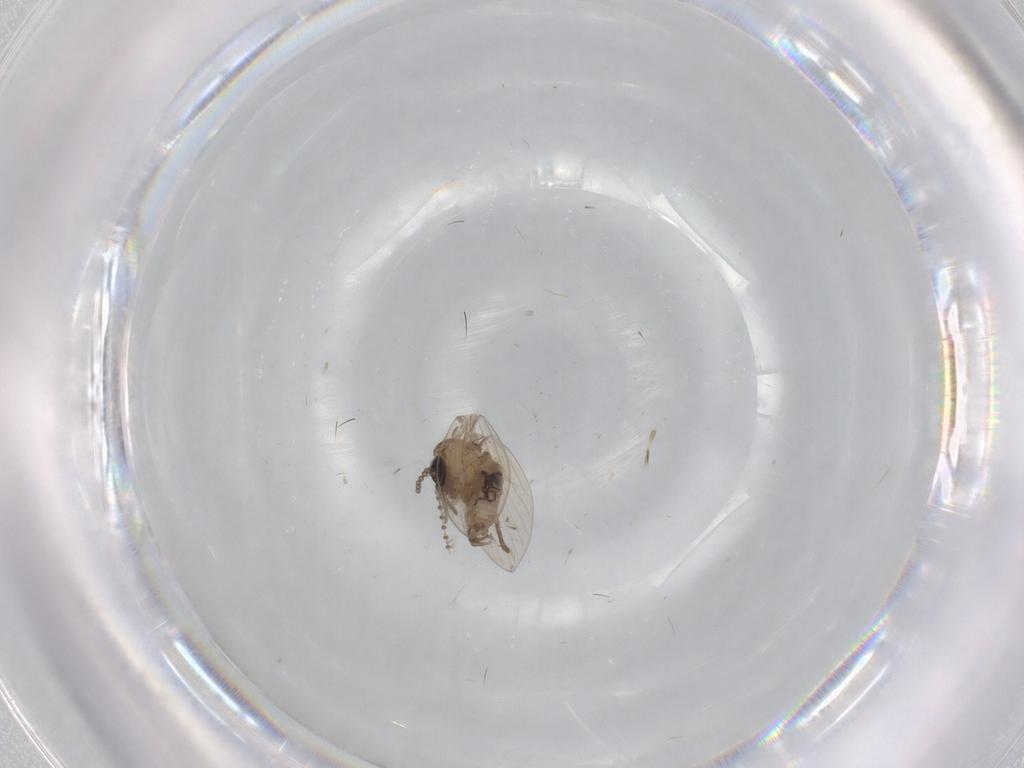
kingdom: Animalia
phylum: Arthropoda
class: Insecta
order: Diptera
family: Psychodidae
